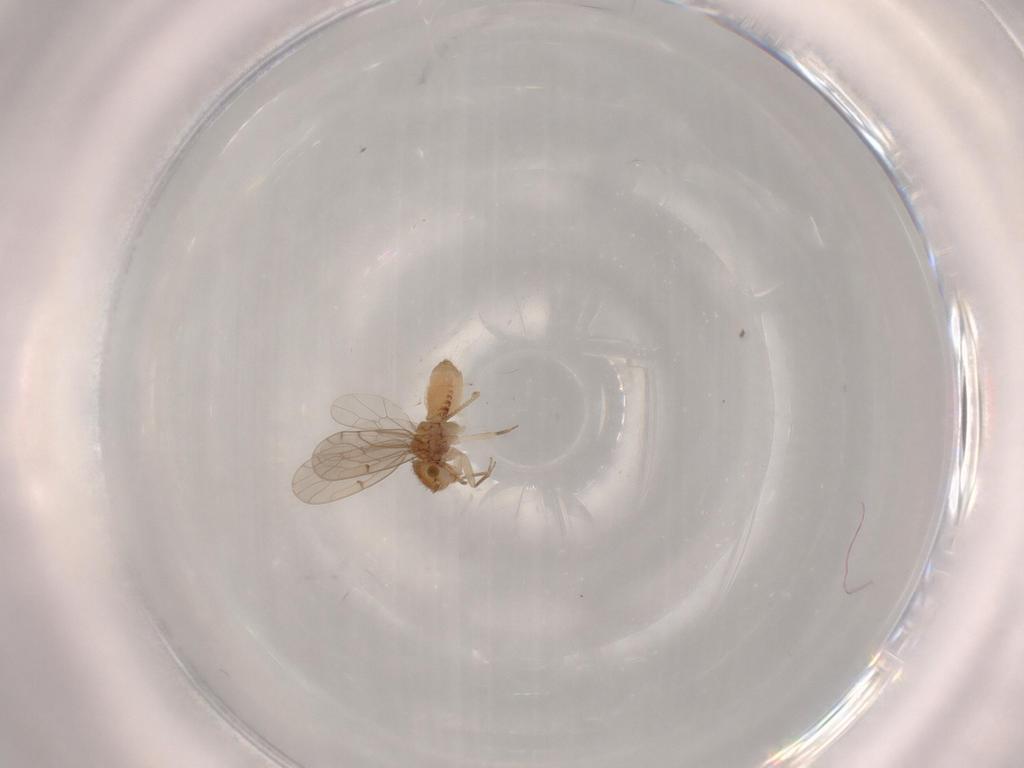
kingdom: Animalia
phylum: Arthropoda
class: Insecta
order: Psocodea
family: Ectopsocidae
